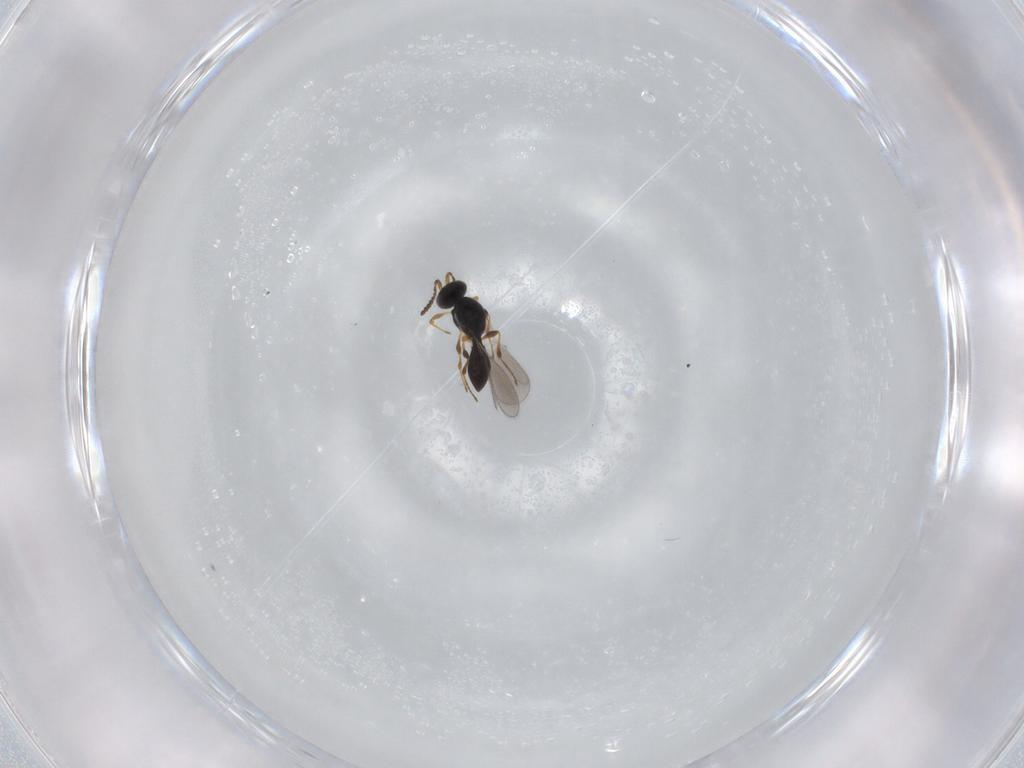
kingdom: Animalia
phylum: Arthropoda
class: Insecta
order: Hymenoptera
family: Platygastridae
